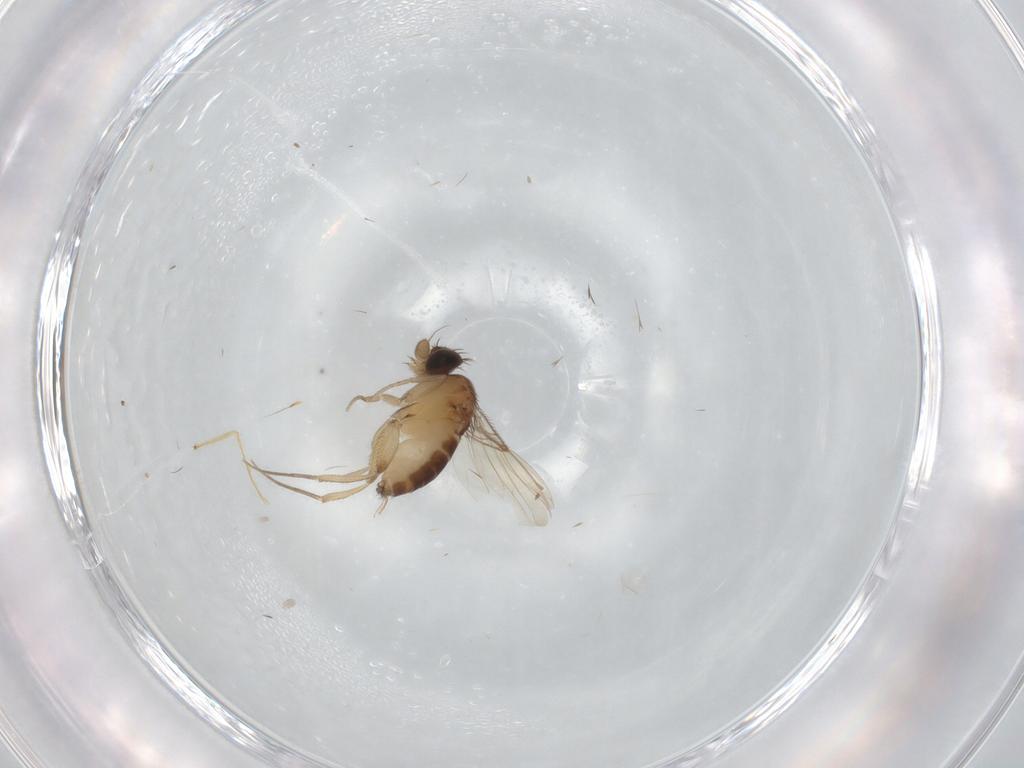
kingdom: Animalia
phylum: Arthropoda
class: Insecta
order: Diptera
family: Phoridae
